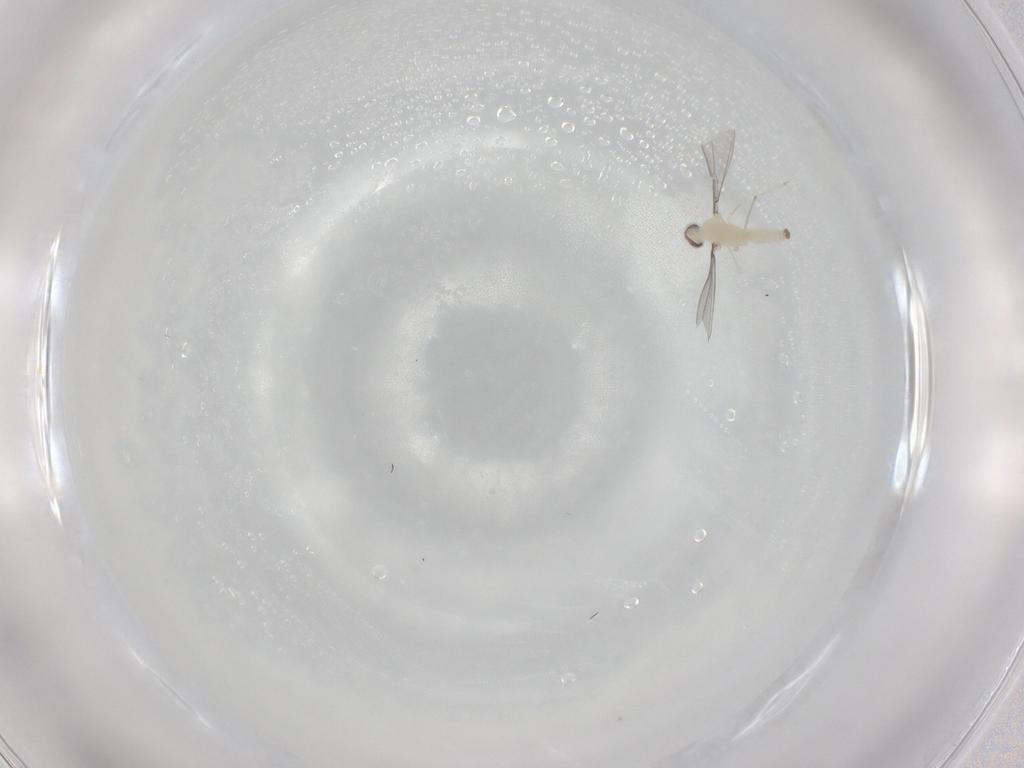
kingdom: Animalia
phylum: Arthropoda
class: Insecta
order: Diptera
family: Cecidomyiidae
